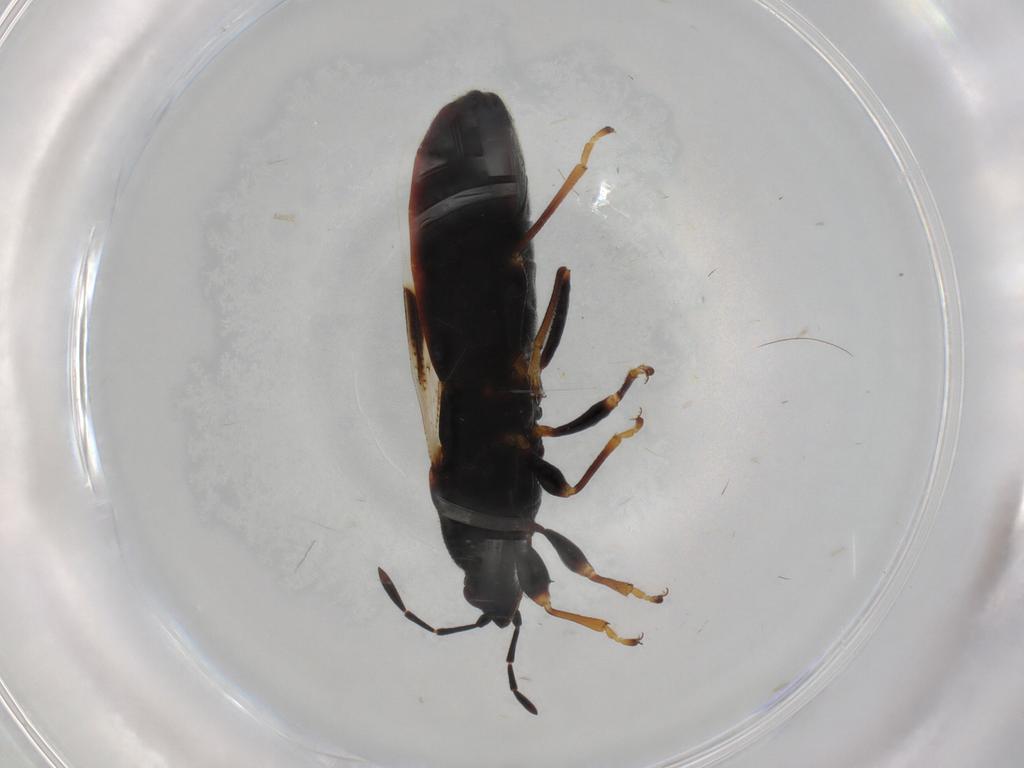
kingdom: Animalia
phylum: Arthropoda
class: Insecta
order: Hemiptera
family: Blissidae
